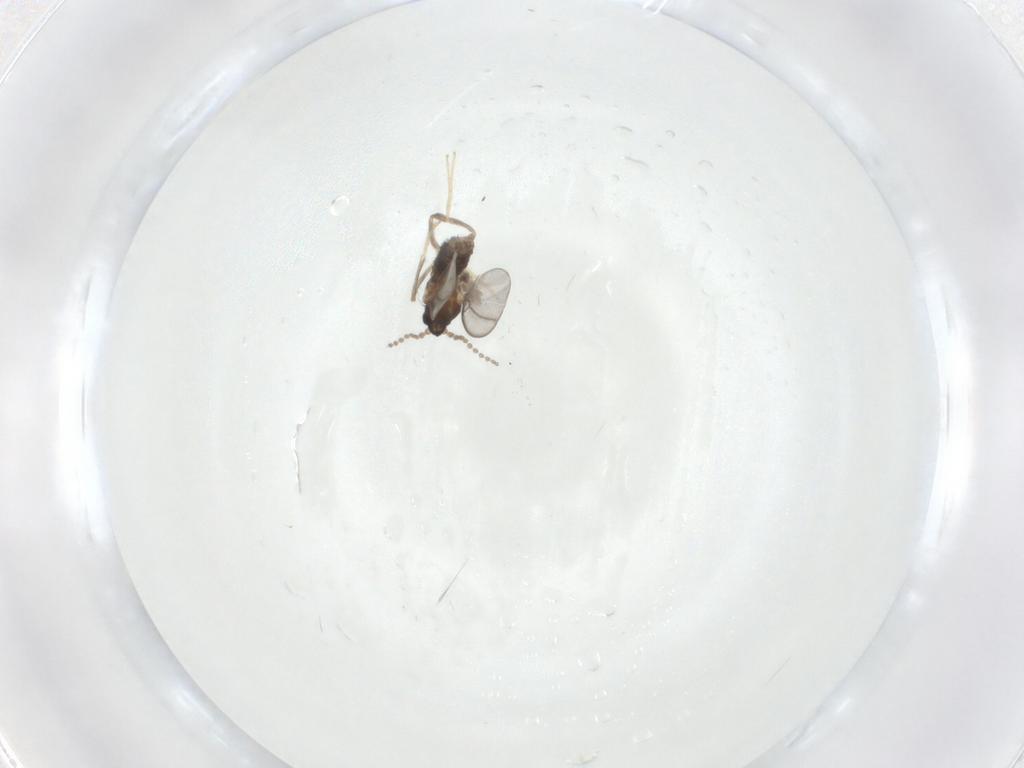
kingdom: Animalia
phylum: Arthropoda
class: Insecta
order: Diptera
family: Cecidomyiidae
